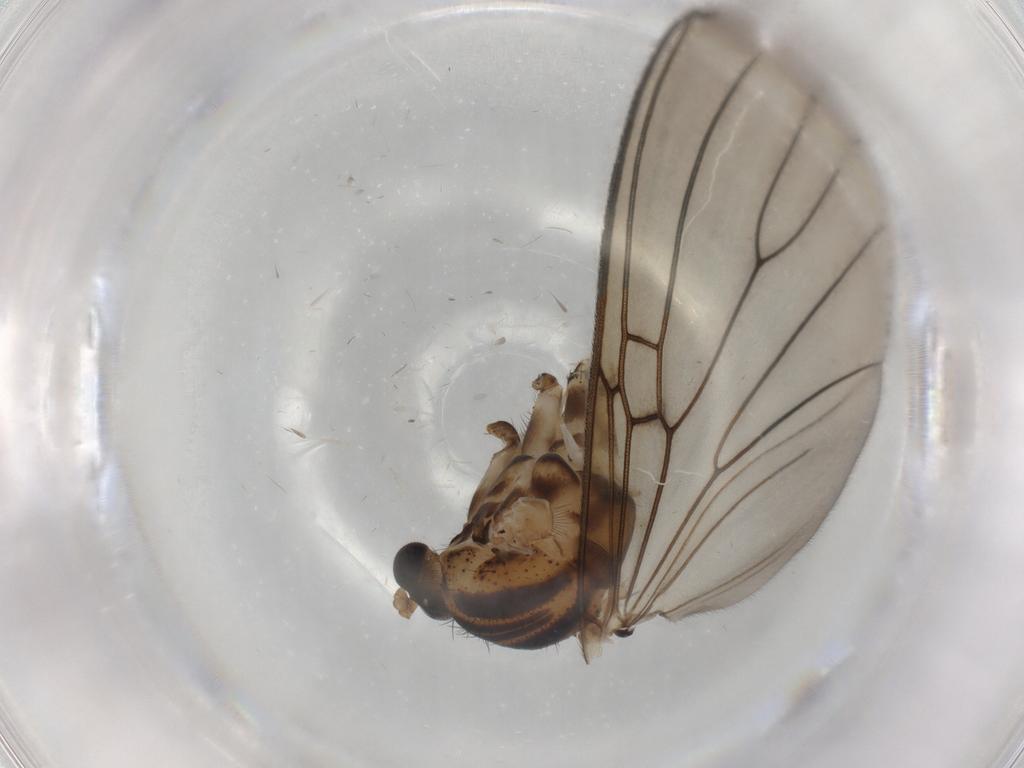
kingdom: Animalia
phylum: Arthropoda
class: Insecta
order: Diptera
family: Mycetophilidae
